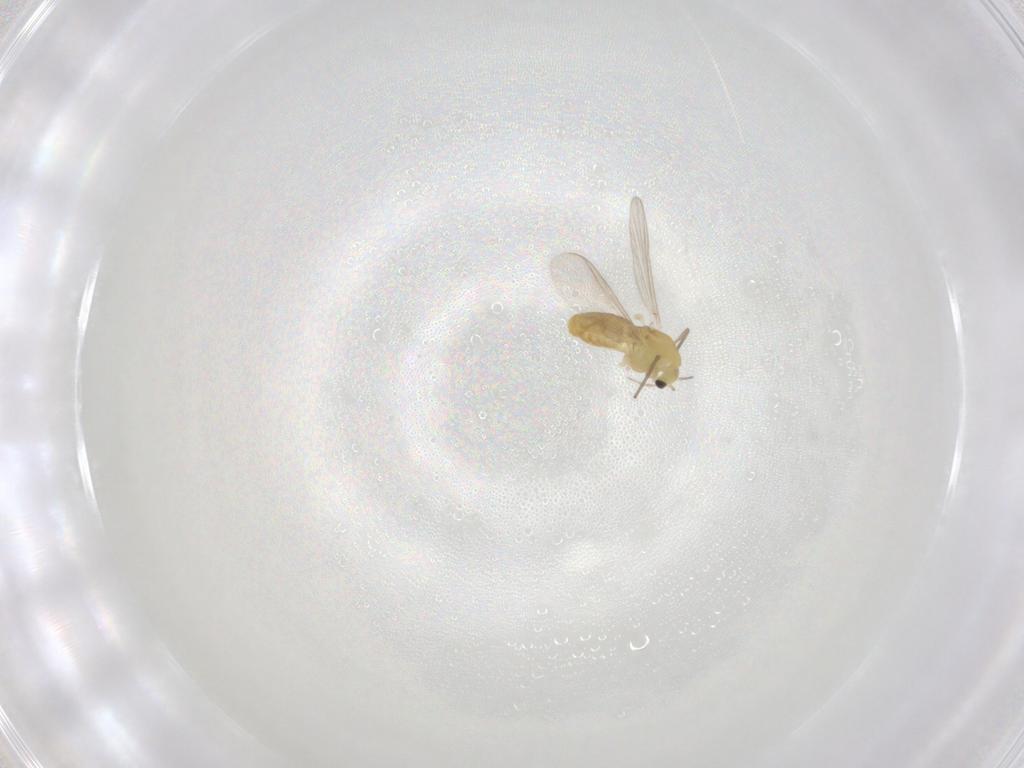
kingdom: Animalia
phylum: Arthropoda
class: Insecta
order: Diptera
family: Chironomidae
